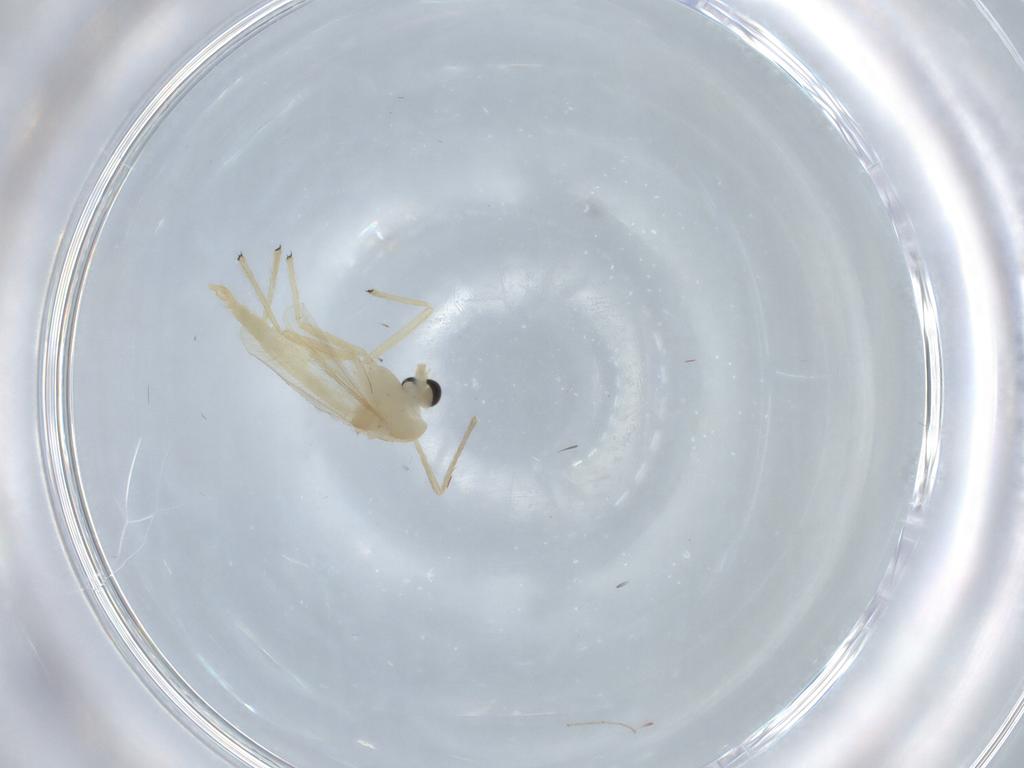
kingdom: Animalia
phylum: Arthropoda
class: Insecta
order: Diptera
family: Chironomidae
